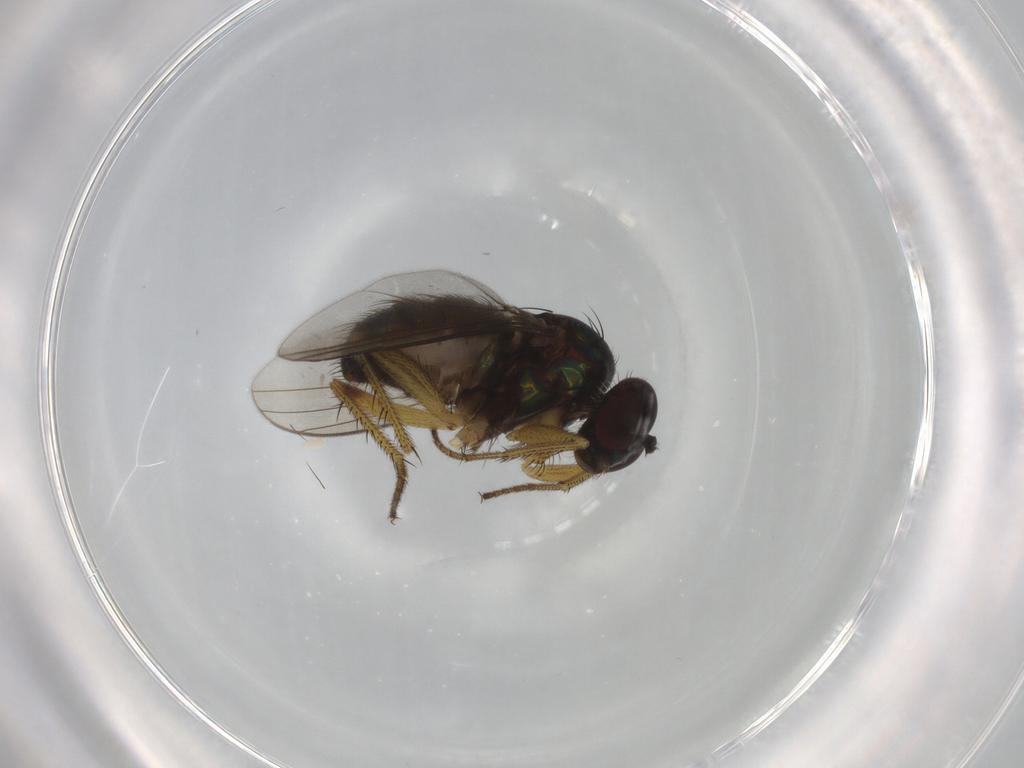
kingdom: Animalia
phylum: Arthropoda
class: Insecta
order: Diptera
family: Dolichopodidae
